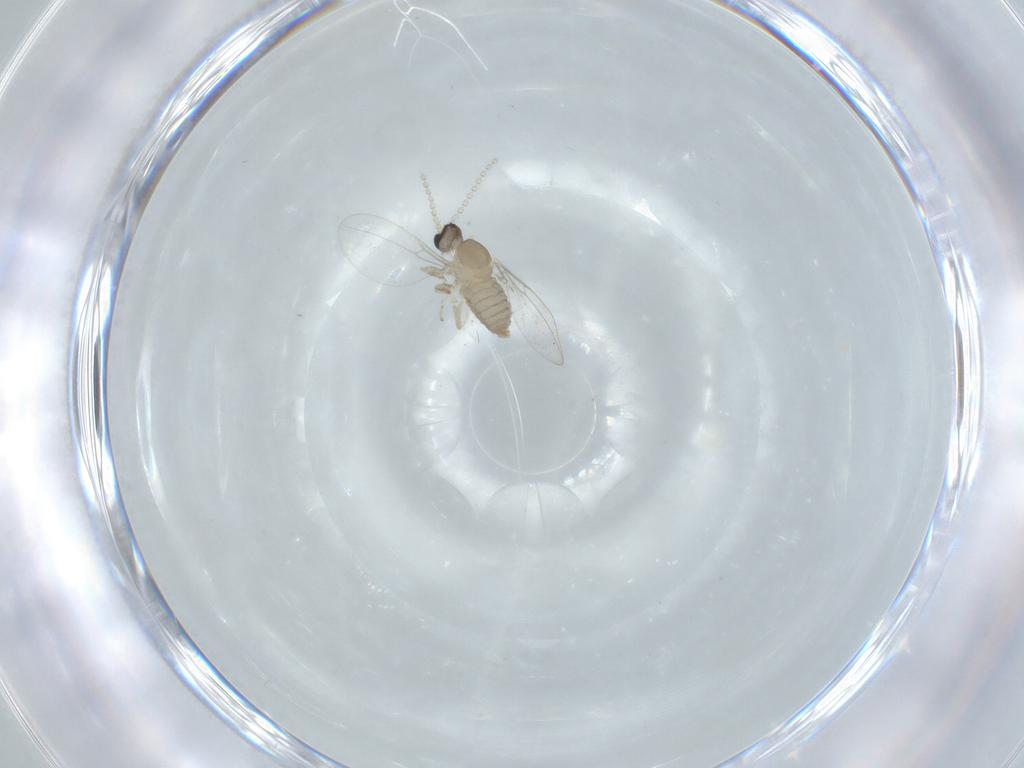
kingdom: Animalia
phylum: Arthropoda
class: Insecta
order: Diptera
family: Cecidomyiidae
